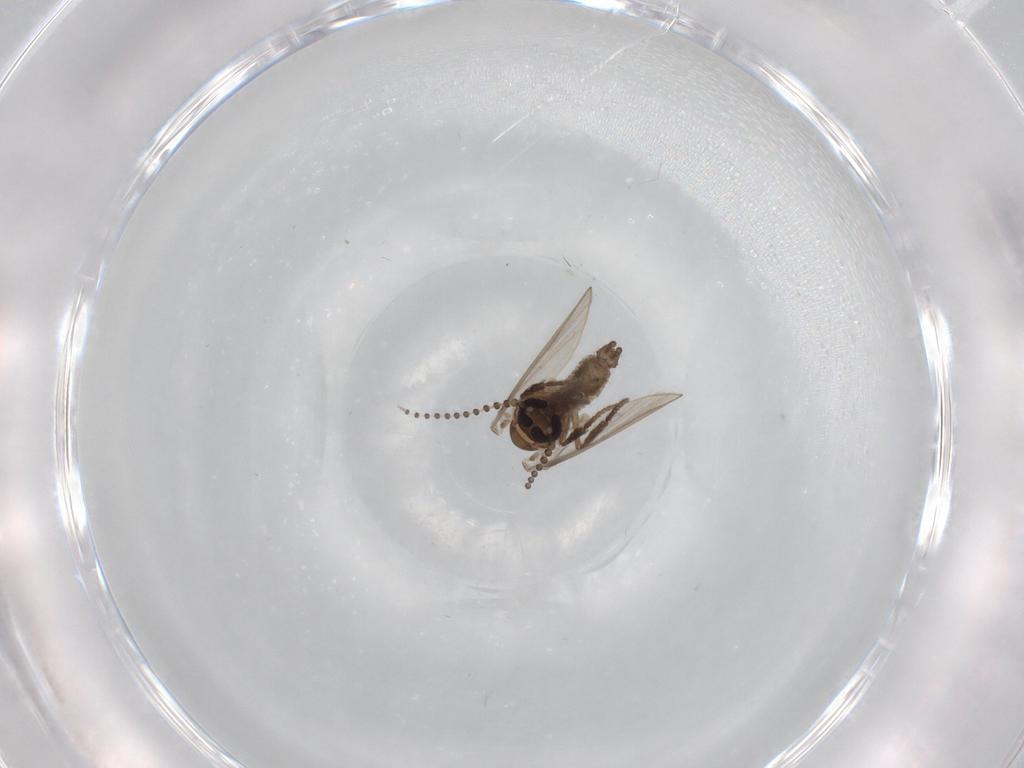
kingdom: Animalia
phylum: Arthropoda
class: Insecta
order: Diptera
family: Psychodidae
